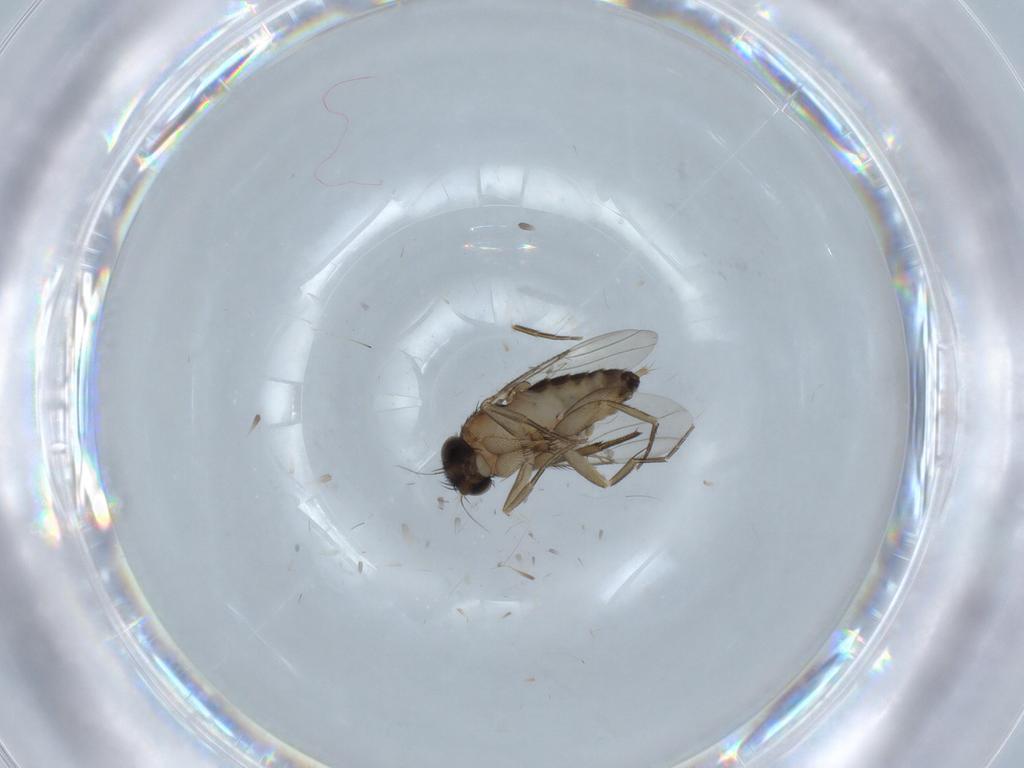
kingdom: Animalia
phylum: Arthropoda
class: Insecta
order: Diptera
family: Phoridae
